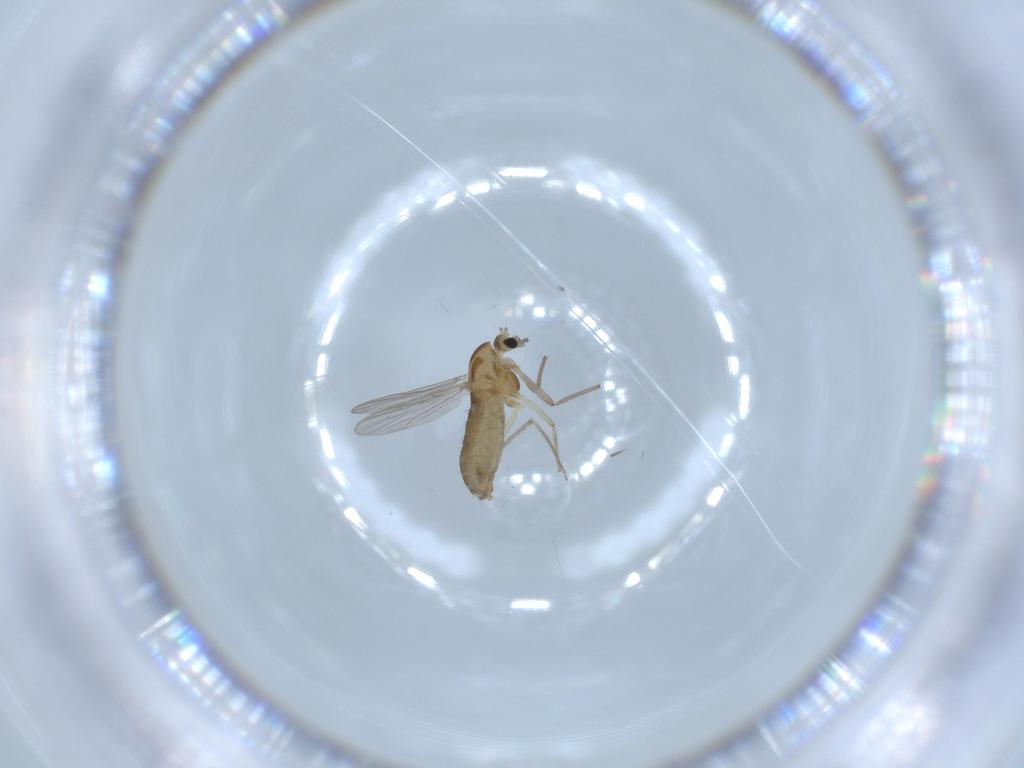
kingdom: Animalia
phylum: Arthropoda
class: Insecta
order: Diptera
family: Chironomidae
